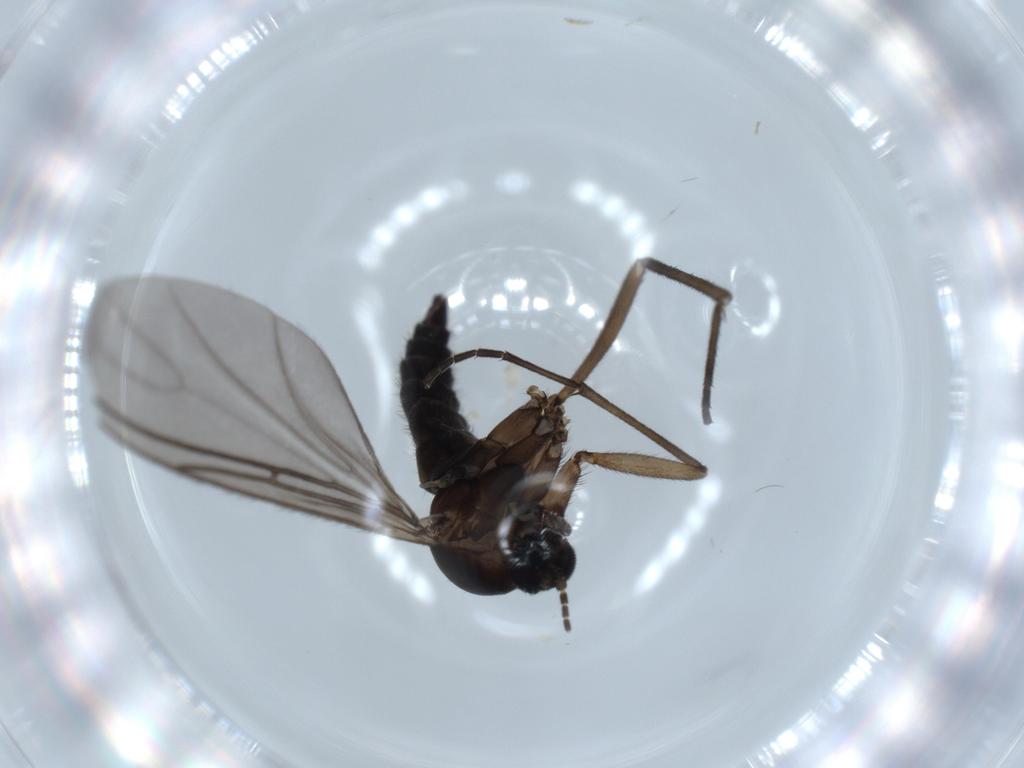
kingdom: Animalia
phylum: Arthropoda
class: Insecta
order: Diptera
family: Sciaridae
